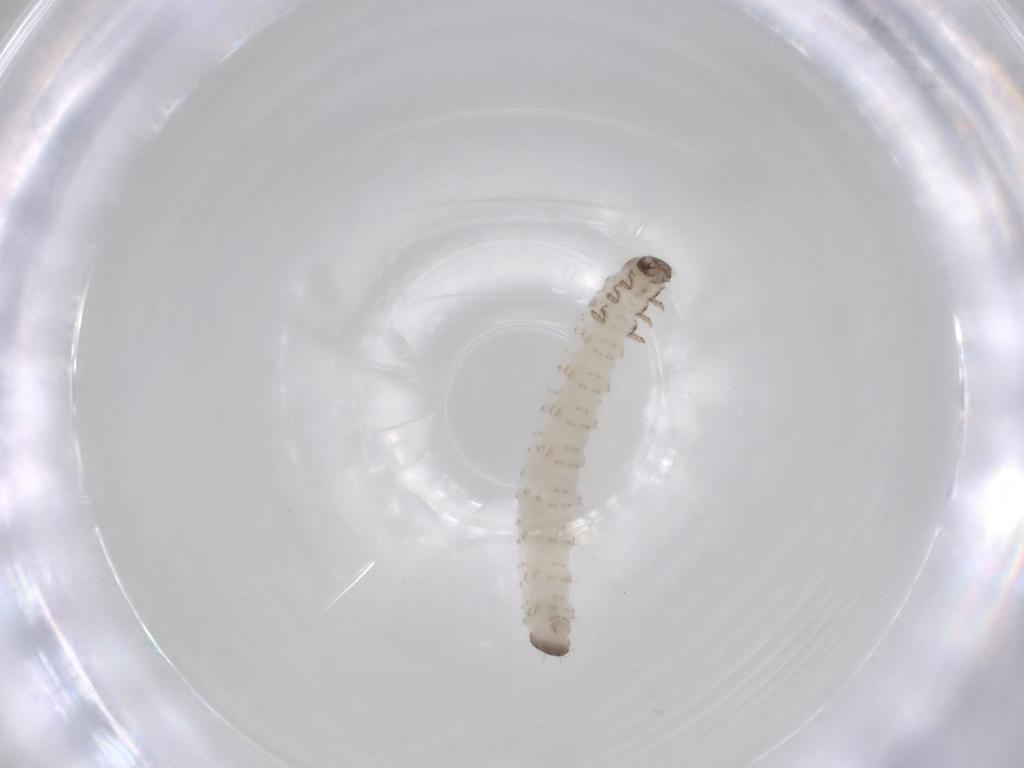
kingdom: Animalia
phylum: Arthropoda
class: Insecta
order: Coleoptera
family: Chrysomelidae
